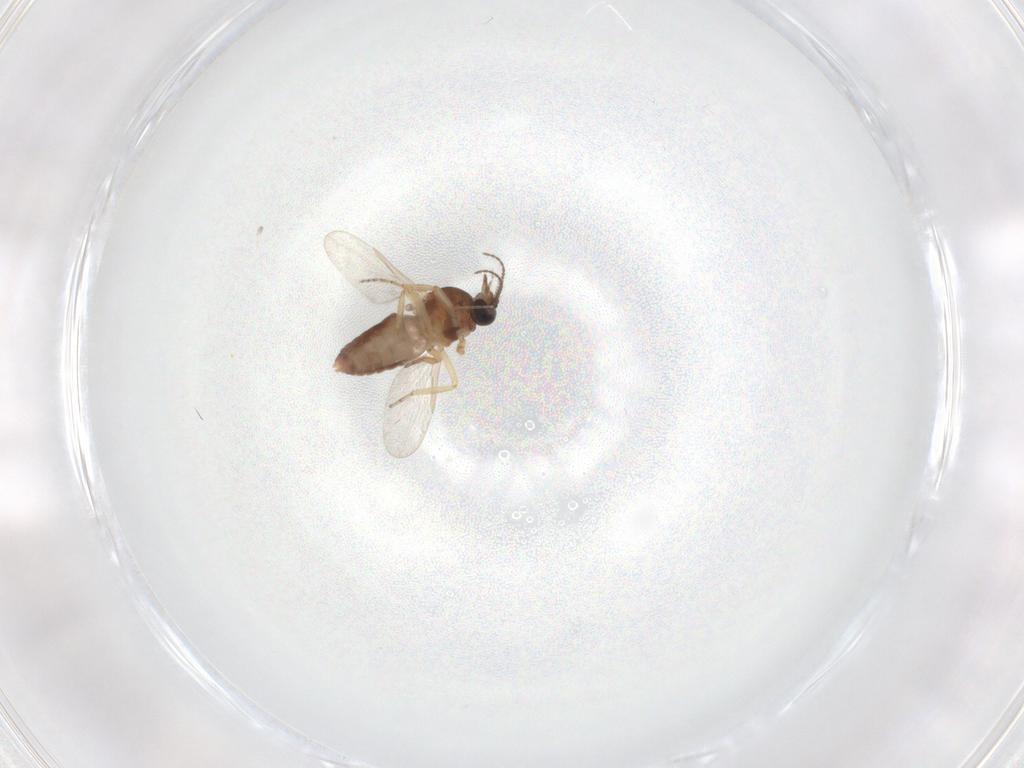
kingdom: Animalia
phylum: Arthropoda
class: Insecta
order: Diptera
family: Ceratopogonidae
